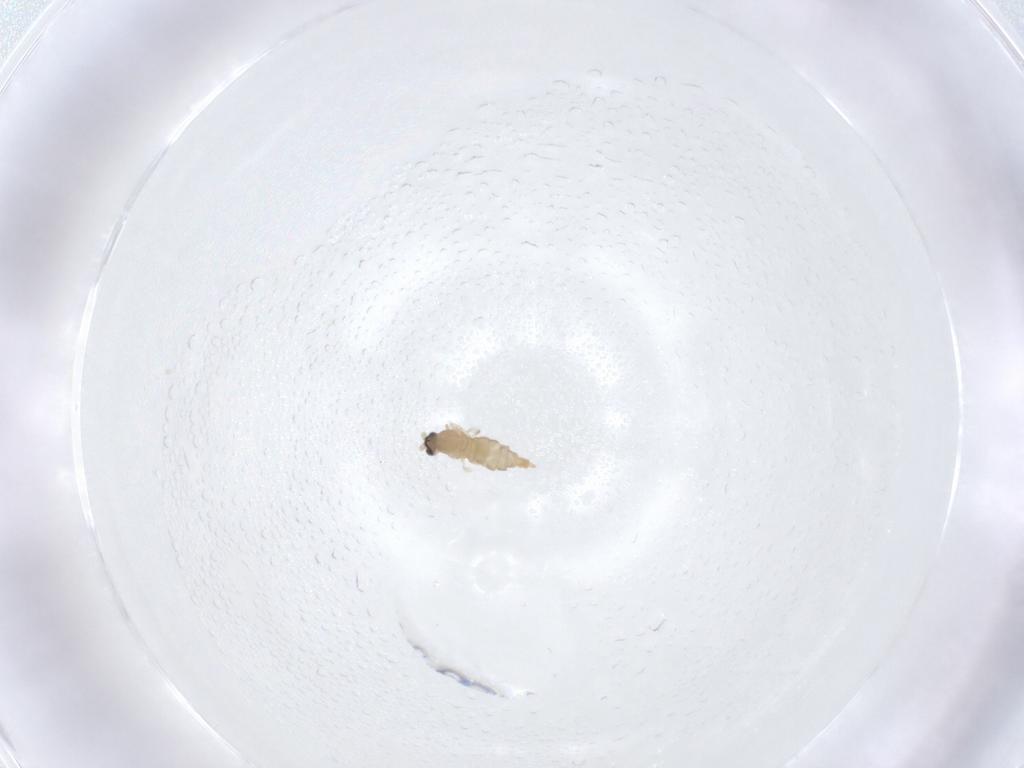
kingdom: Animalia
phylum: Arthropoda
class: Insecta
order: Diptera
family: Cecidomyiidae
